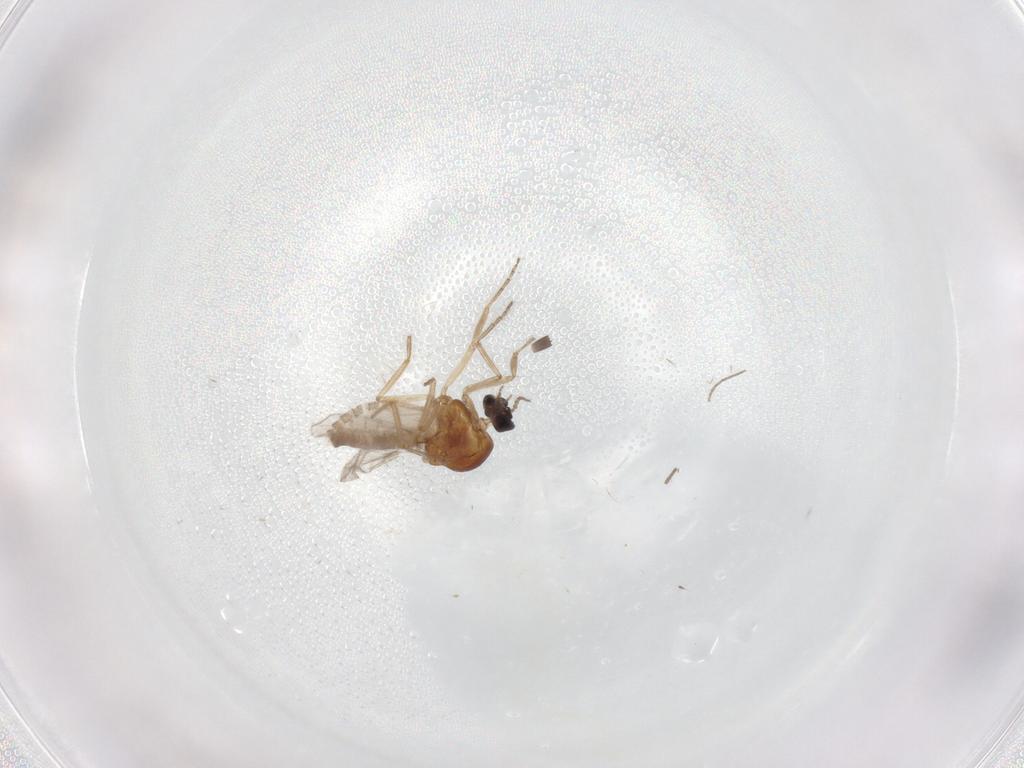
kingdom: Animalia
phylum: Arthropoda
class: Insecta
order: Diptera
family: Chironomidae
